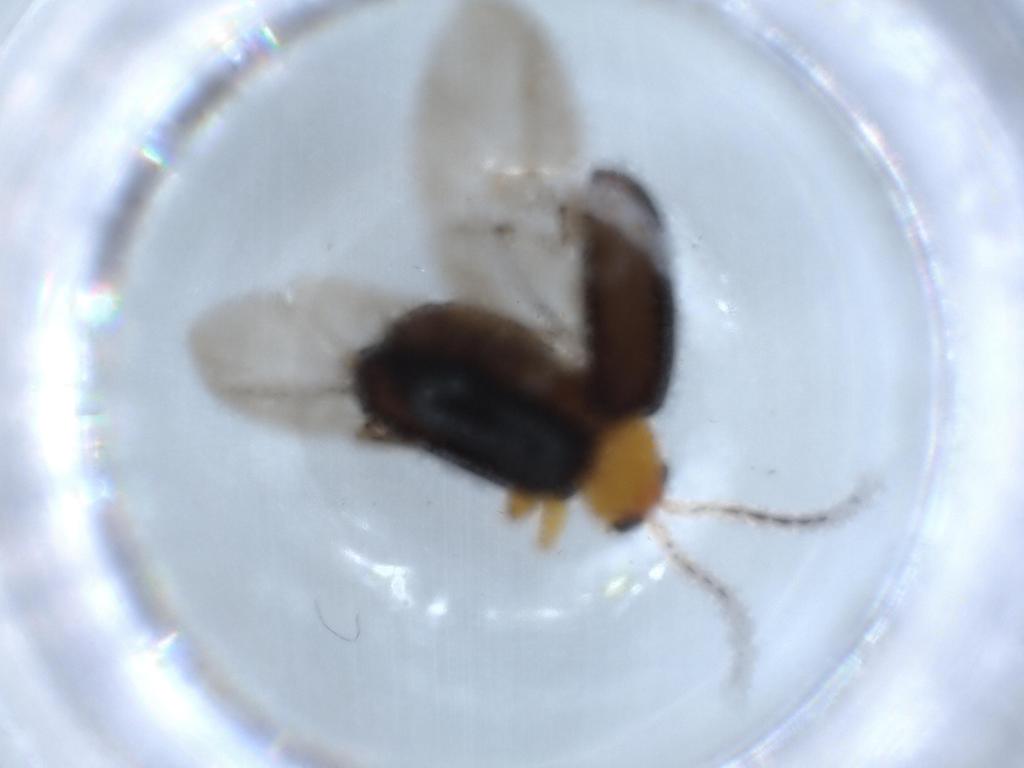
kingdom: Animalia
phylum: Arthropoda
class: Insecta
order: Coleoptera
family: Chrysomelidae
